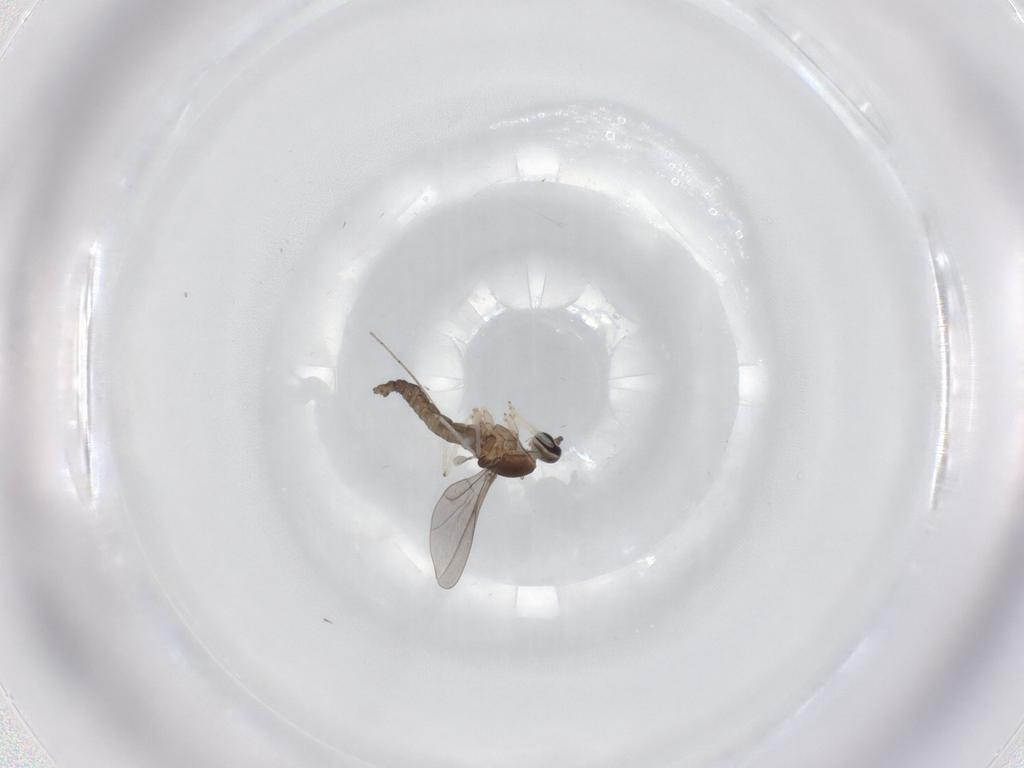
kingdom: Animalia
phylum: Arthropoda
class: Insecta
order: Diptera
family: Cecidomyiidae
